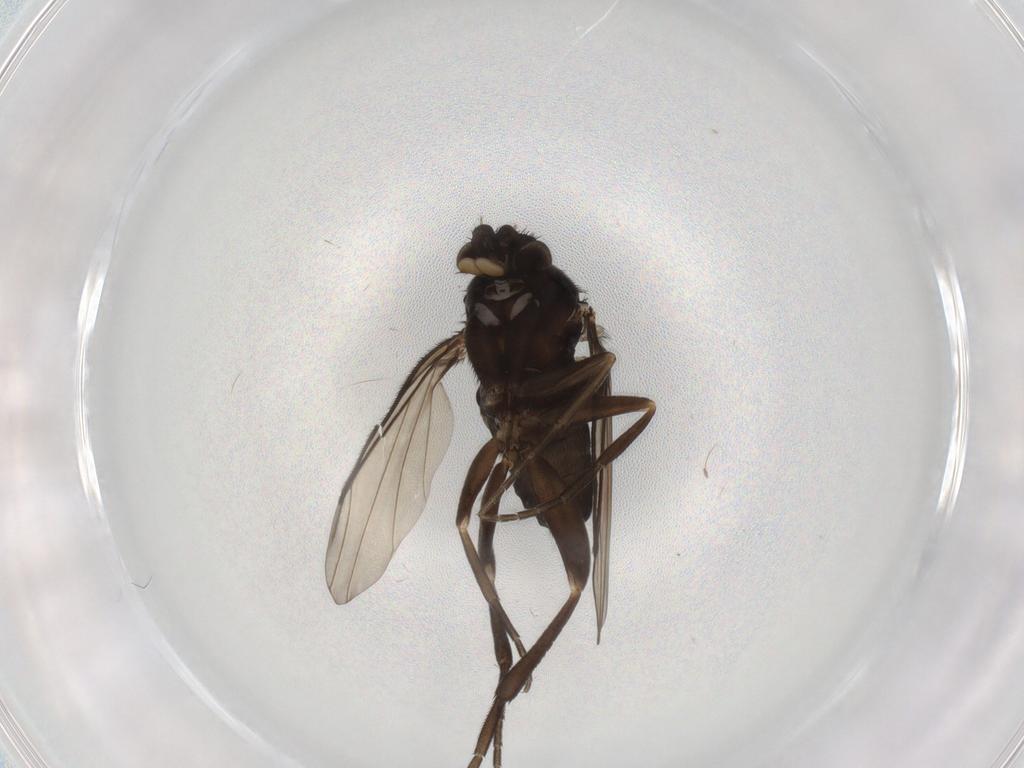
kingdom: Animalia
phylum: Arthropoda
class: Insecta
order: Diptera
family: Phoridae
